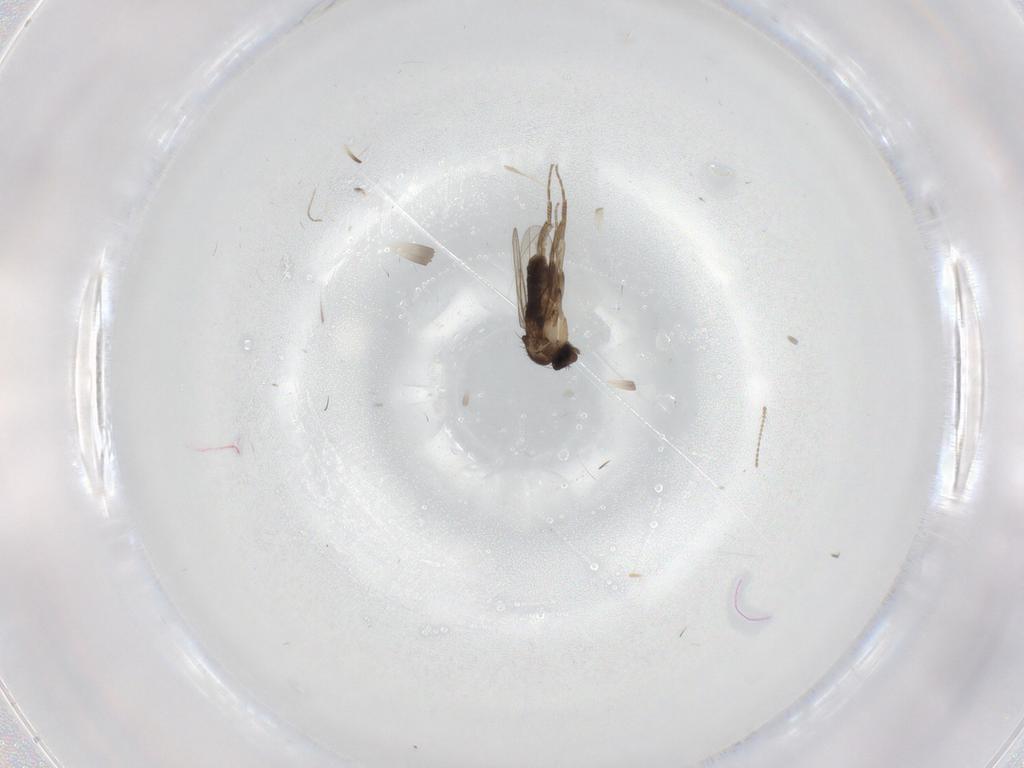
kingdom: Animalia
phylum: Arthropoda
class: Insecta
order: Diptera
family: Phoridae
